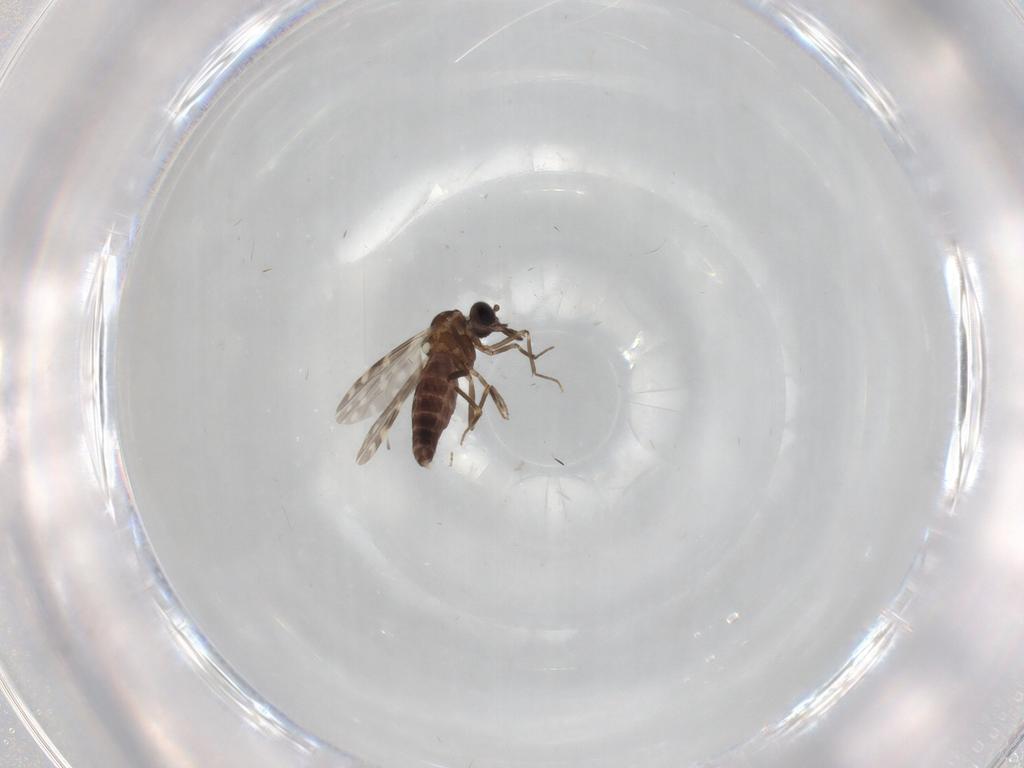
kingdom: Animalia
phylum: Arthropoda
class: Insecta
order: Diptera
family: Ceratopogonidae
